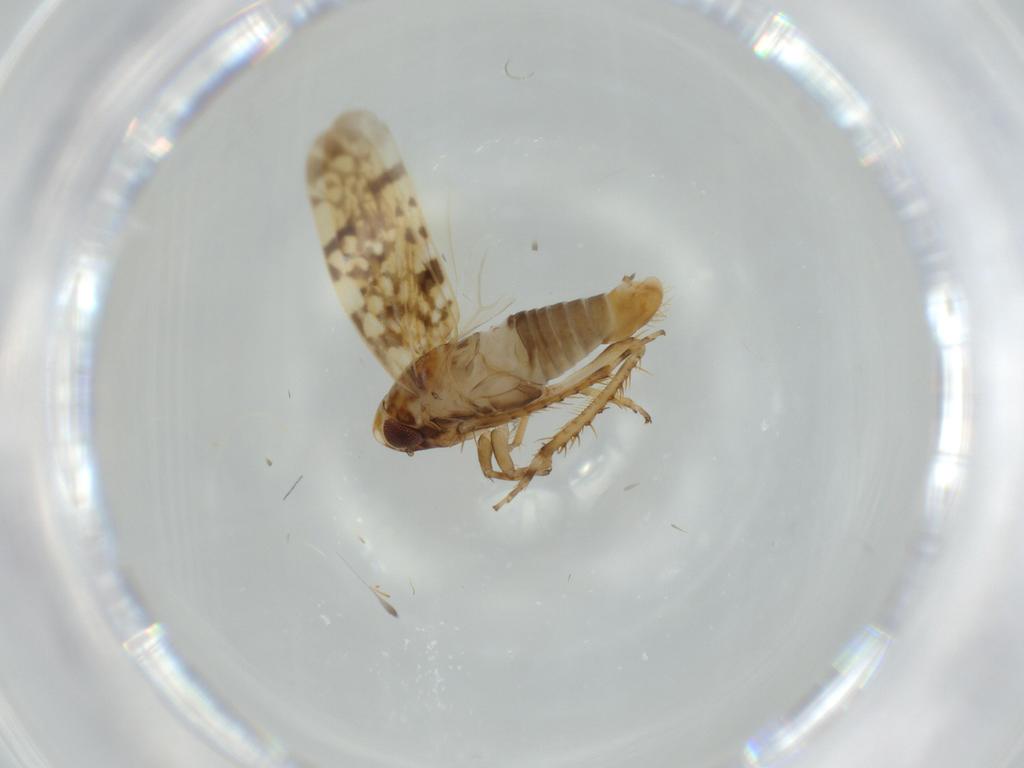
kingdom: Animalia
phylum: Arthropoda
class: Insecta
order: Hemiptera
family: Cicadellidae
